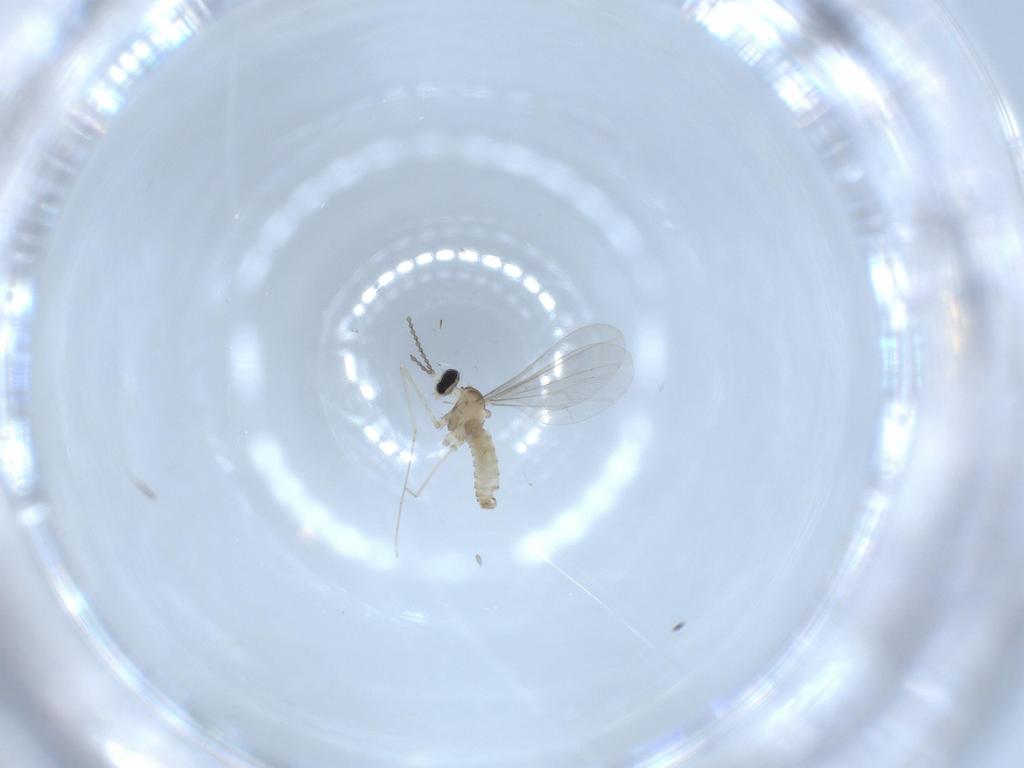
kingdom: Animalia
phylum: Arthropoda
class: Insecta
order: Diptera
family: Cecidomyiidae
